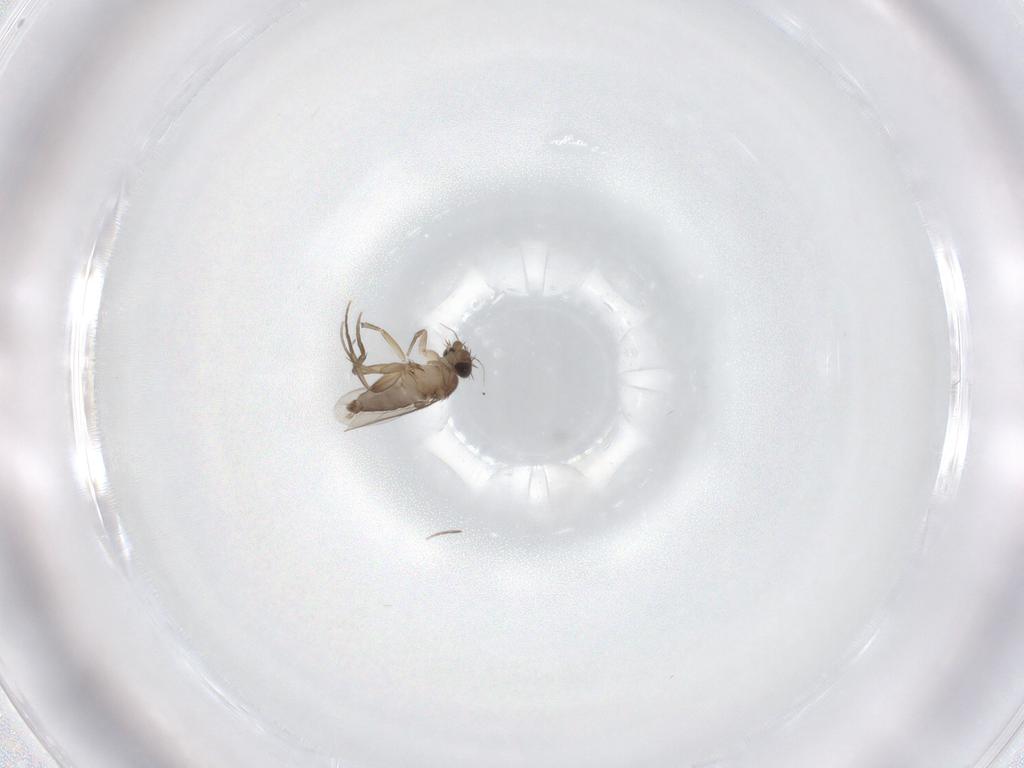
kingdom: Animalia
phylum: Arthropoda
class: Insecta
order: Diptera
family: Phoridae
